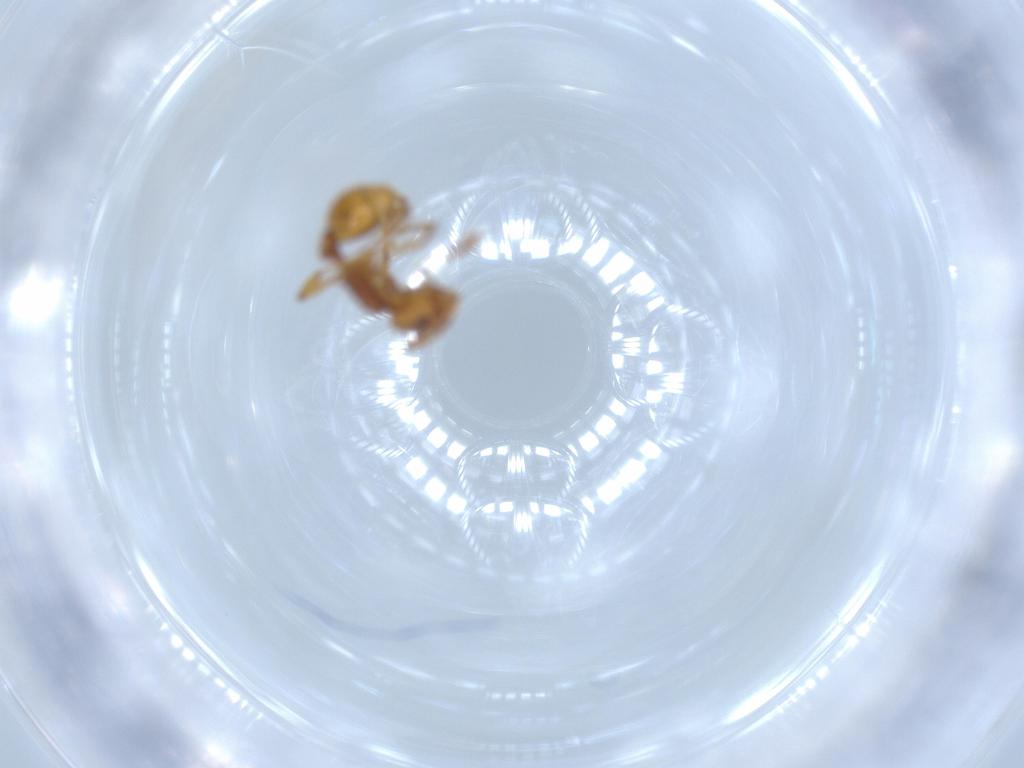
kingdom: Animalia
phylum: Arthropoda
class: Insecta
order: Hymenoptera
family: Formicidae
